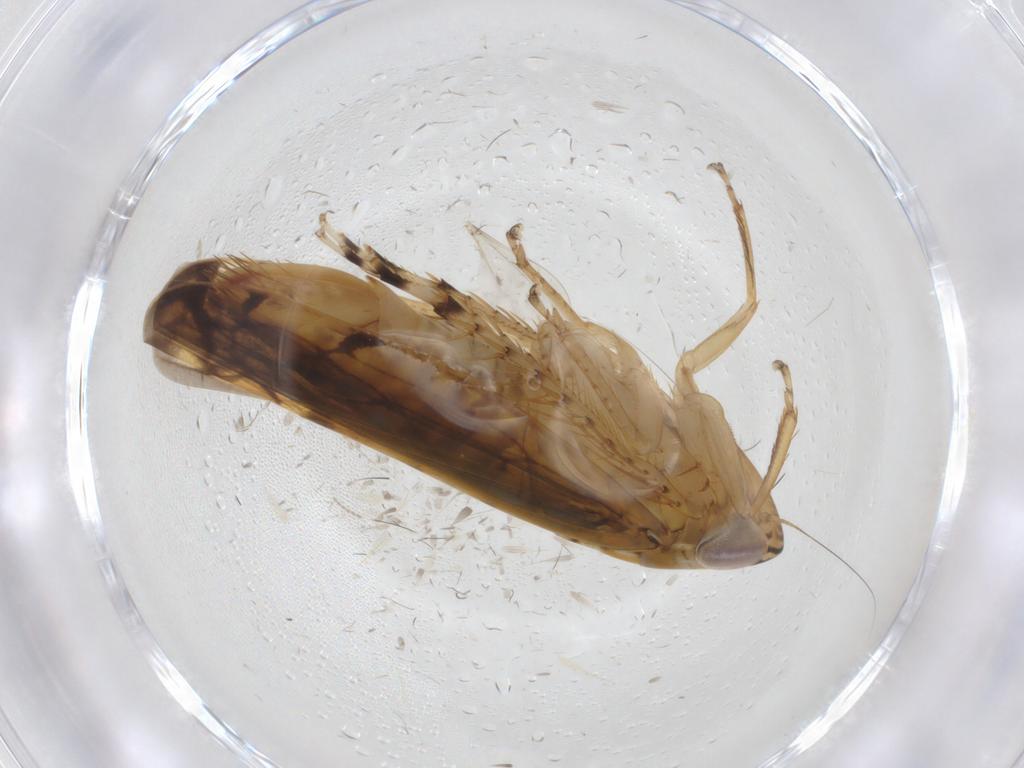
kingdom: Animalia
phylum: Arthropoda
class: Insecta
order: Hemiptera
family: Cicadellidae
